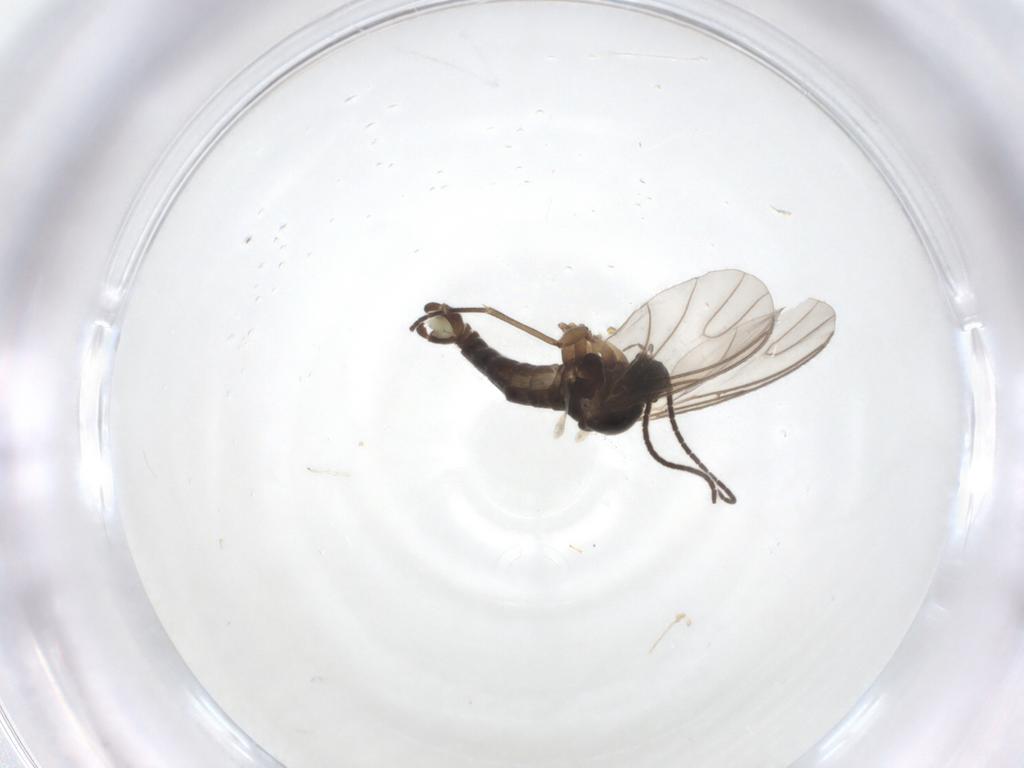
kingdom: Animalia
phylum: Arthropoda
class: Insecta
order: Diptera
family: Sciaridae
